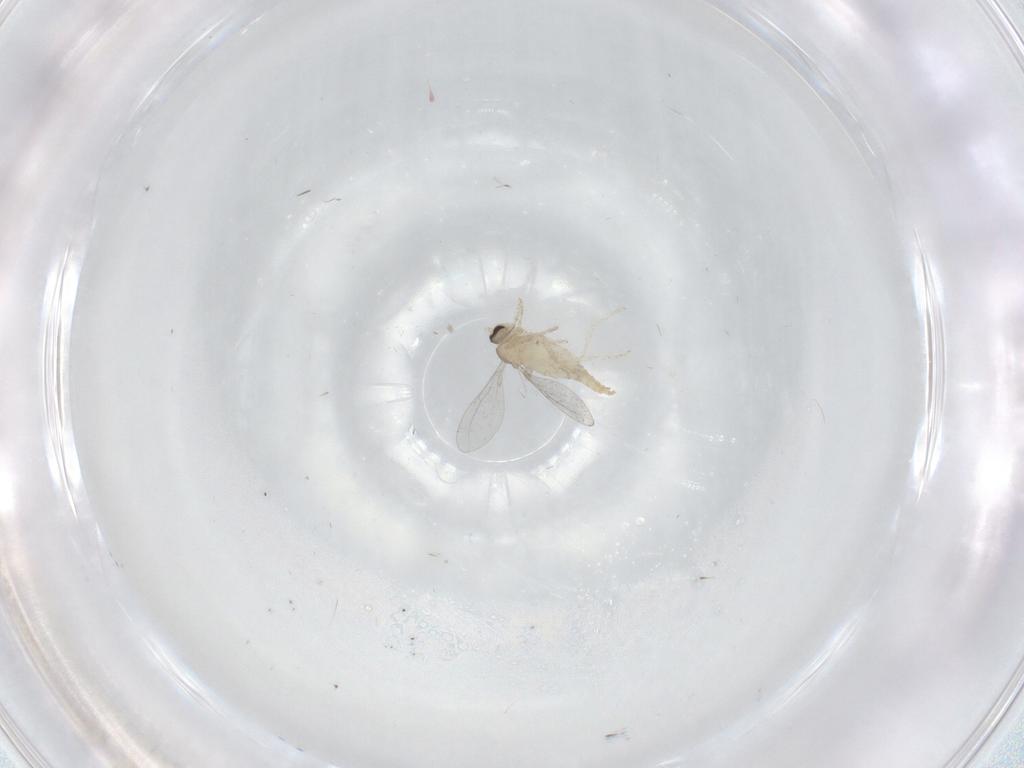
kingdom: Animalia
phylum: Arthropoda
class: Insecta
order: Diptera
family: Cecidomyiidae
